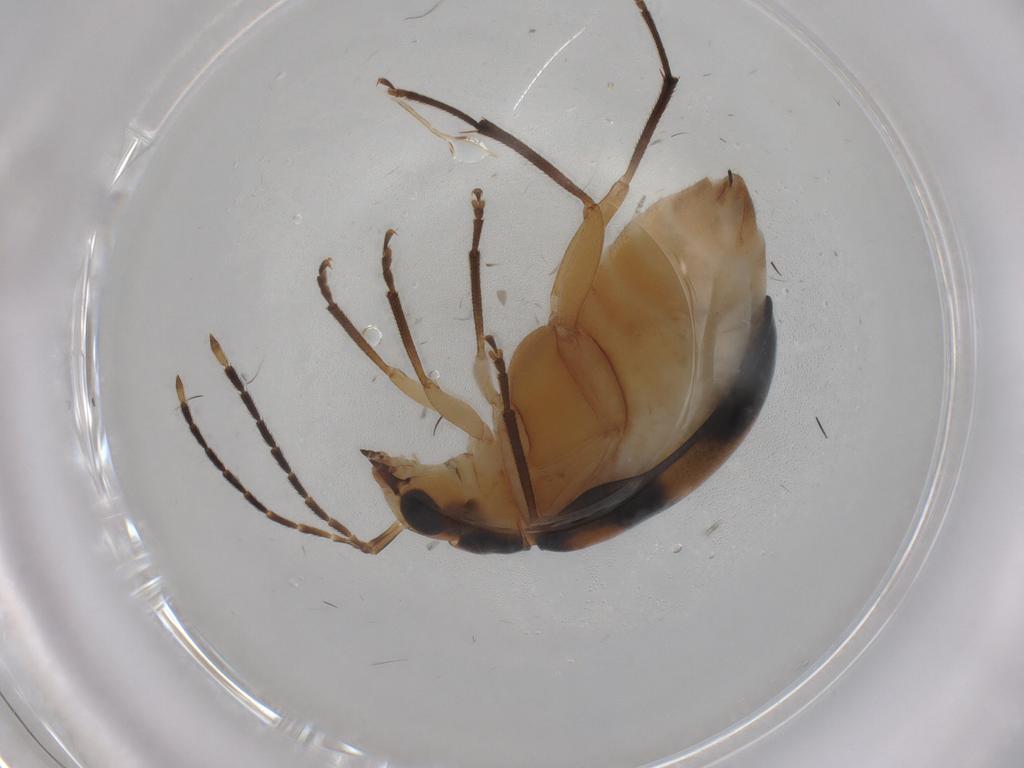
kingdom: Animalia
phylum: Arthropoda
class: Insecta
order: Coleoptera
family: Chrysomelidae
